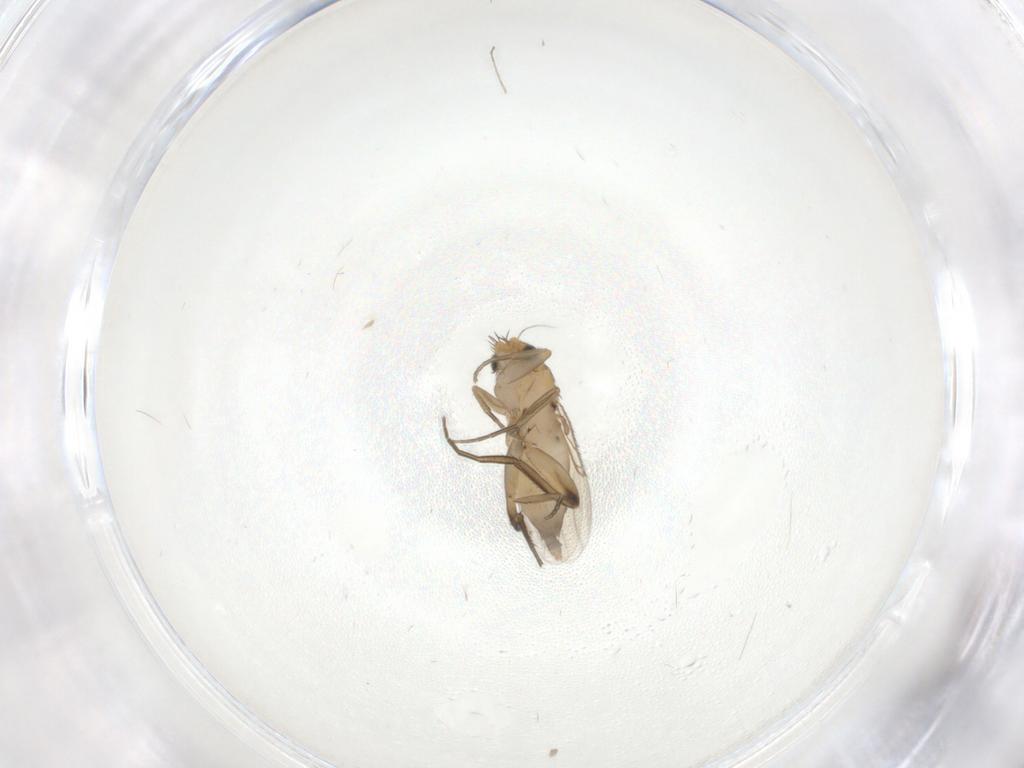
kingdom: Animalia
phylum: Arthropoda
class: Insecta
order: Diptera
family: Phoridae
